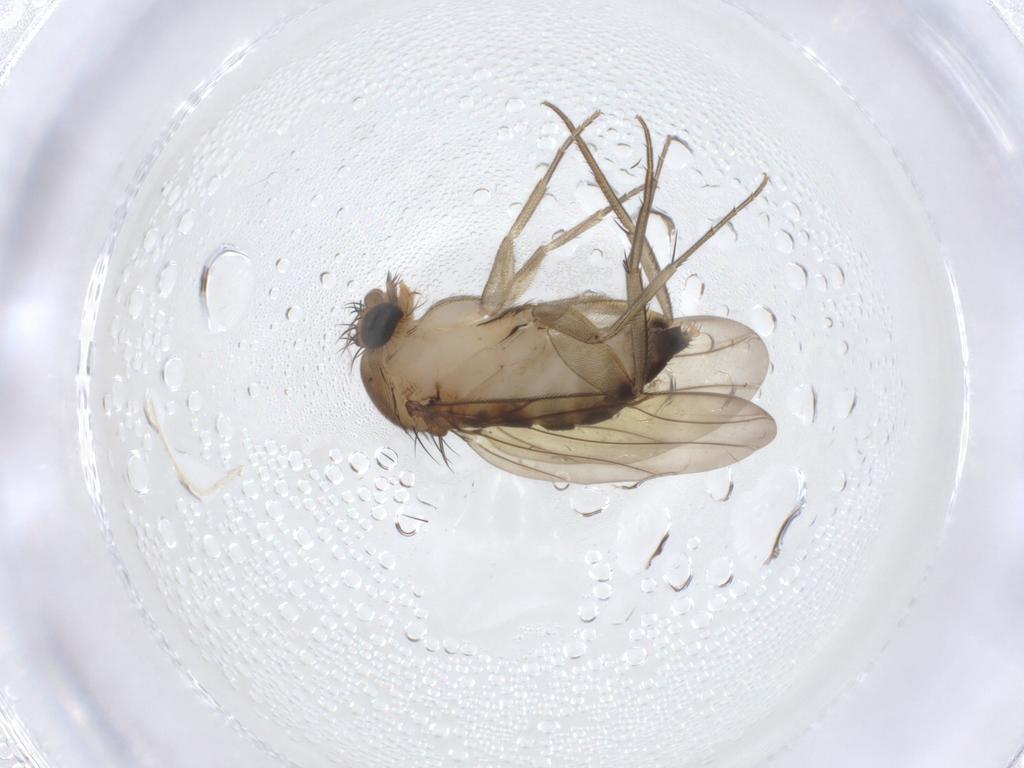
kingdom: Animalia
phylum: Arthropoda
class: Insecta
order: Diptera
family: Phoridae
